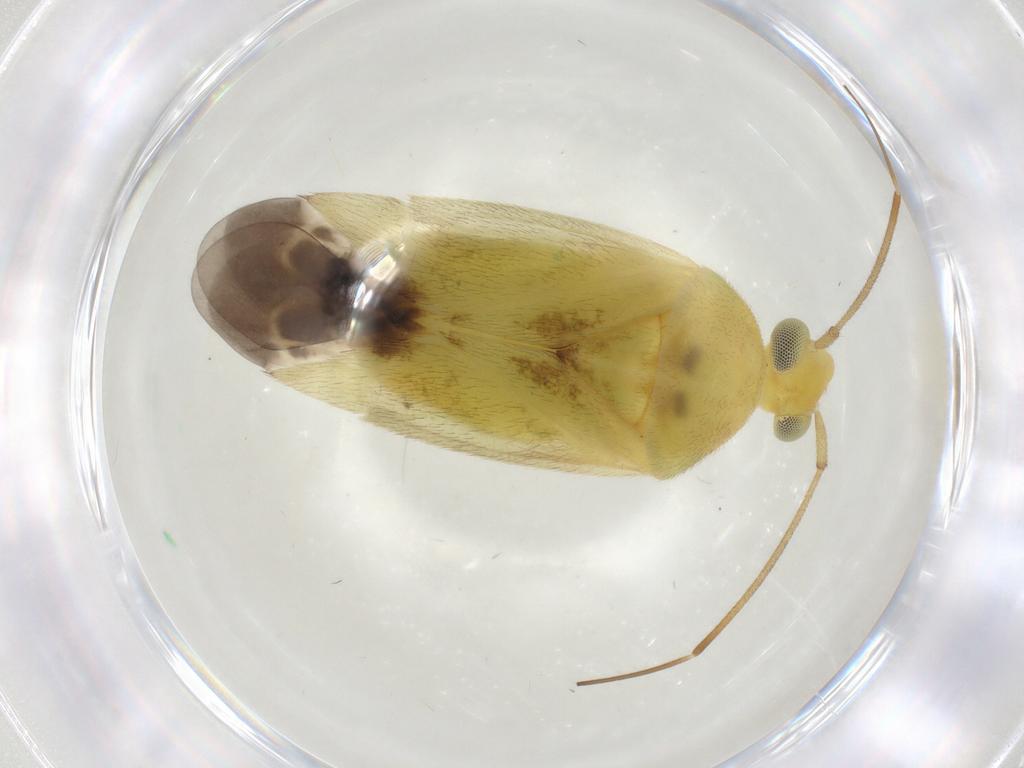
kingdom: Animalia
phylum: Arthropoda
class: Insecta
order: Hemiptera
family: Miridae
